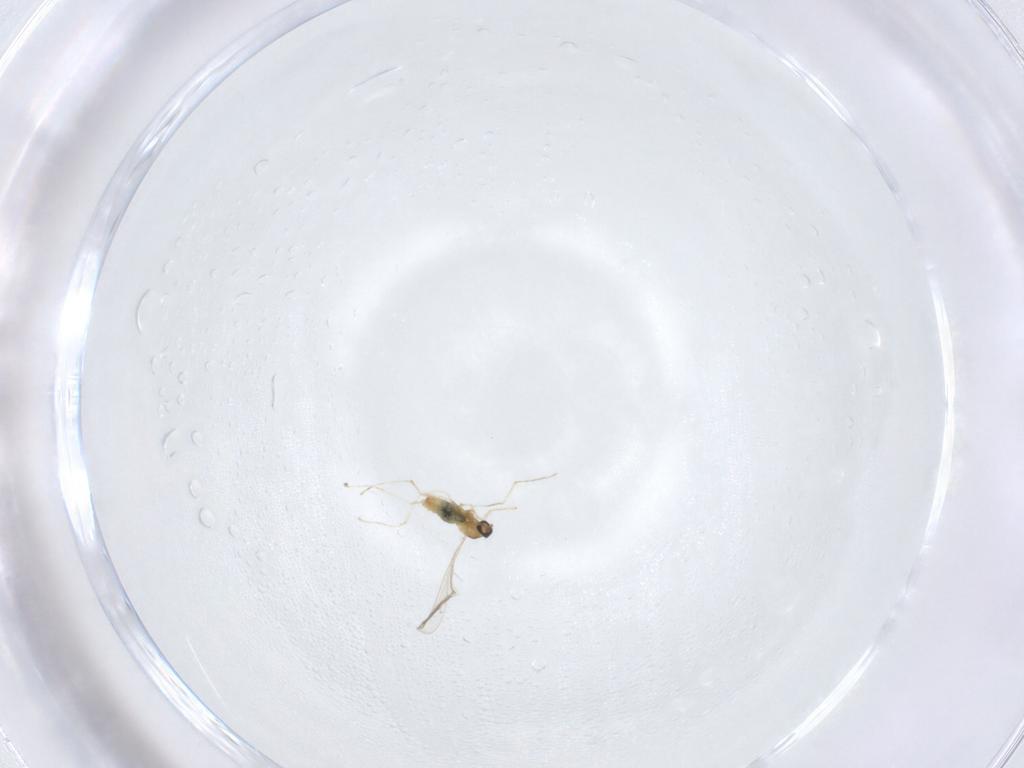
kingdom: Animalia
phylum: Arthropoda
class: Insecta
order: Diptera
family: Cecidomyiidae
